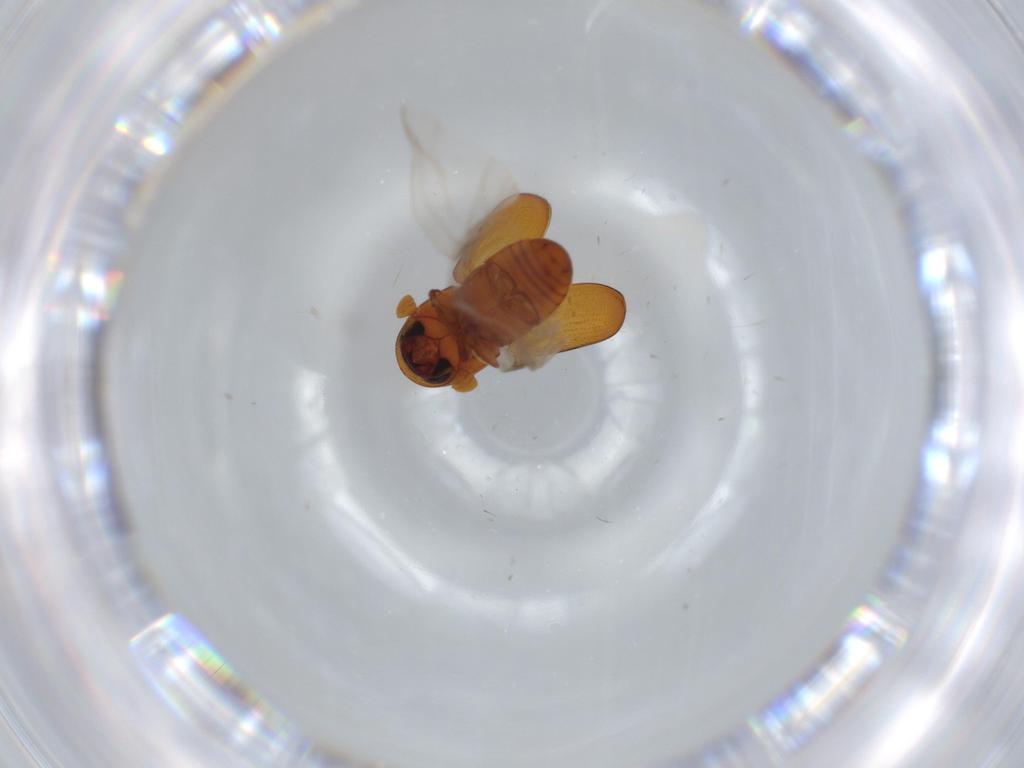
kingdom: Animalia
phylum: Arthropoda
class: Insecta
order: Coleoptera
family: Curculionidae
